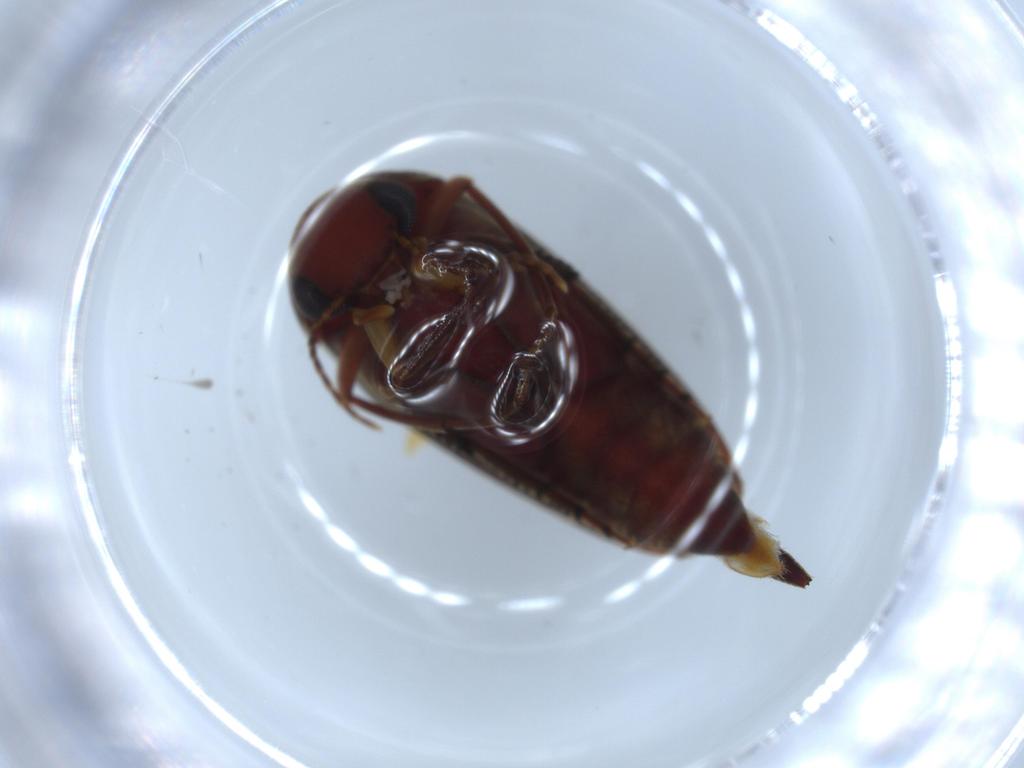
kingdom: Animalia
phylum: Arthropoda
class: Insecta
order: Coleoptera
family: Mordellidae
